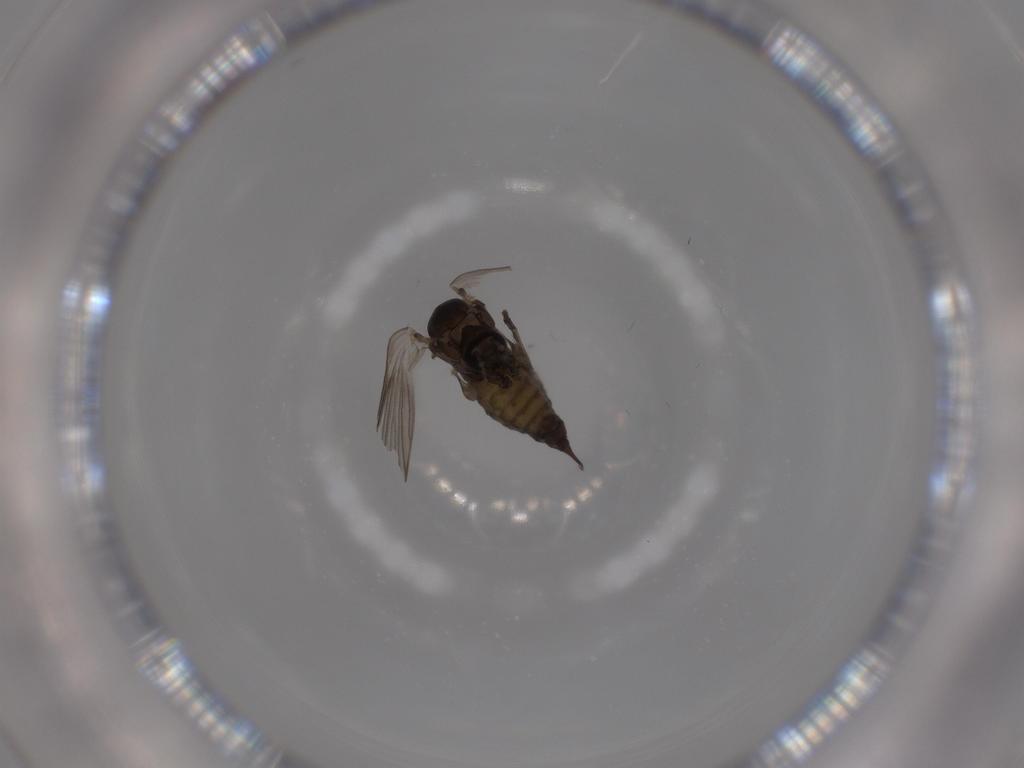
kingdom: Animalia
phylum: Arthropoda
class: Insecta
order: Diptera
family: Psychodidae
